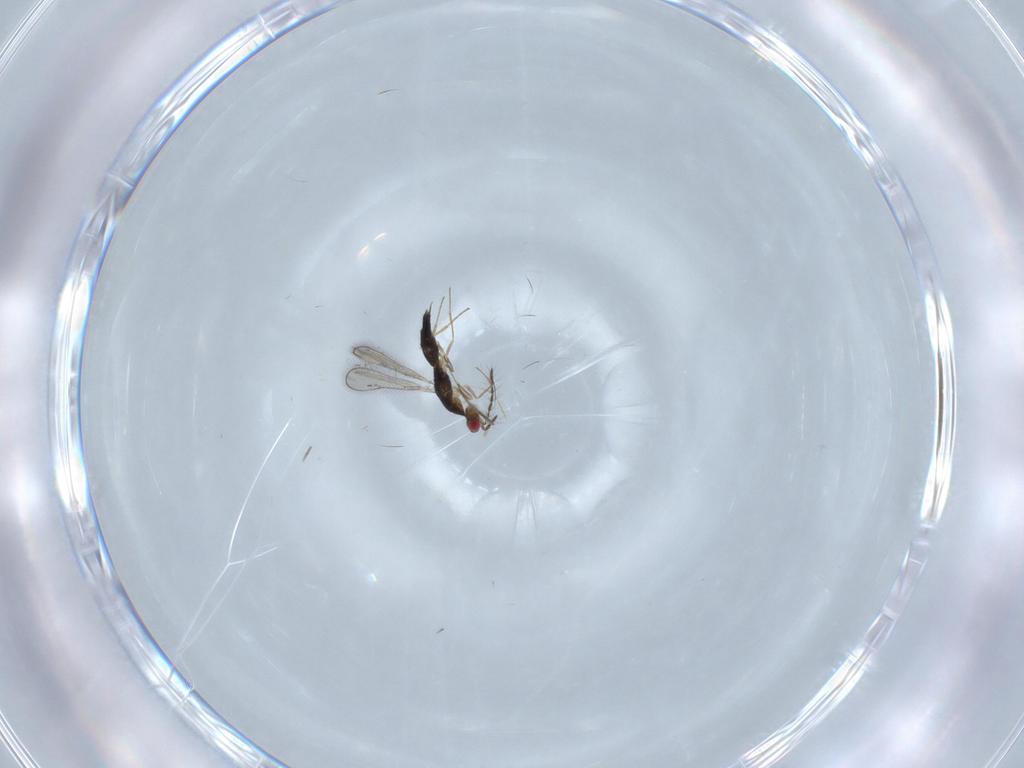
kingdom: Animalia
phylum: Arthropoda
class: Insecta
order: Hymenoptera
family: Eulophidae
